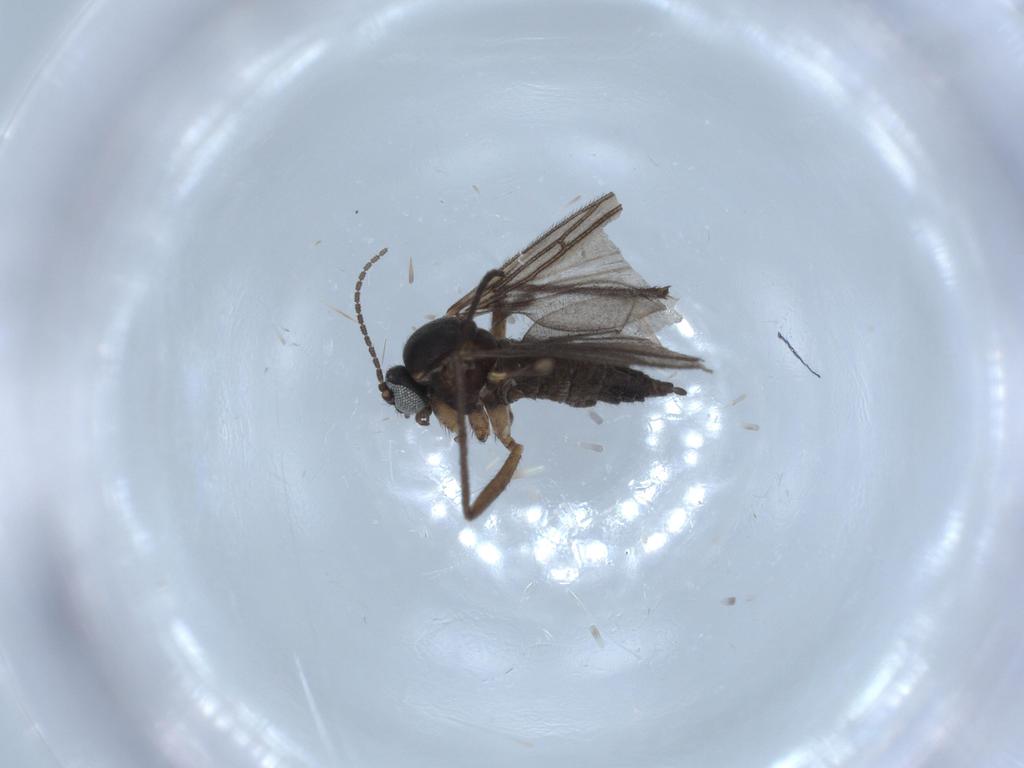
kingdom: Animalia
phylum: Arthropoda
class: Insecta
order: Diptera
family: Sciaridae
